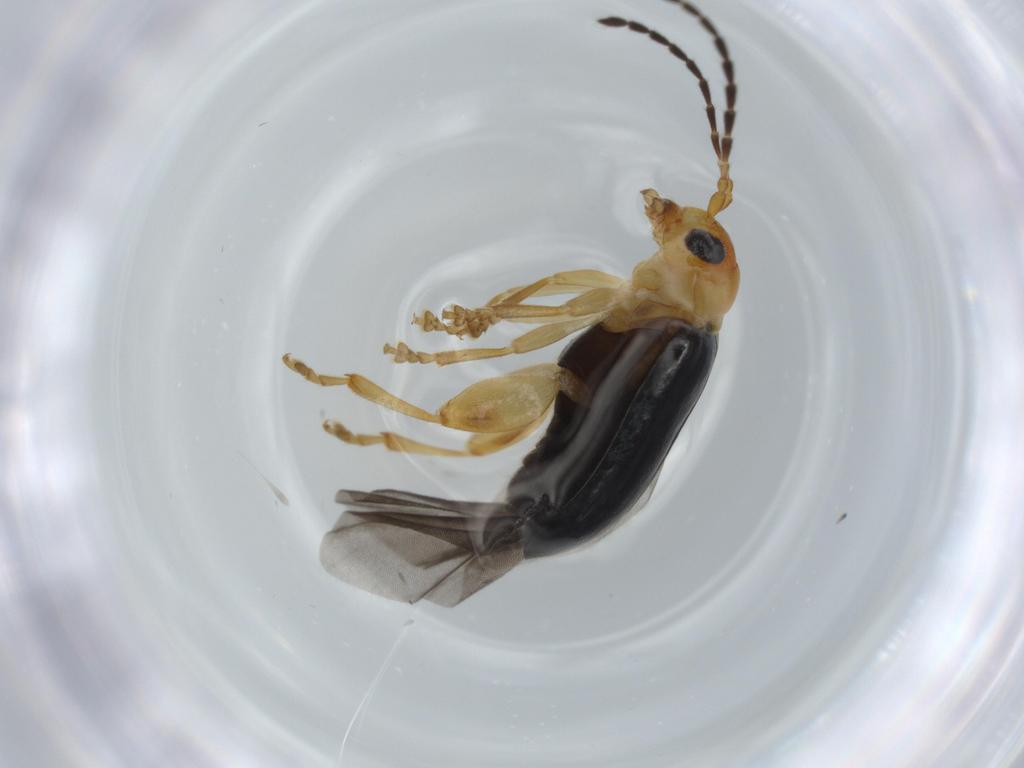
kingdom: Animalia
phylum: Arthropoda
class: Insecta
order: Coleoptera
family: Chrysomelidae
